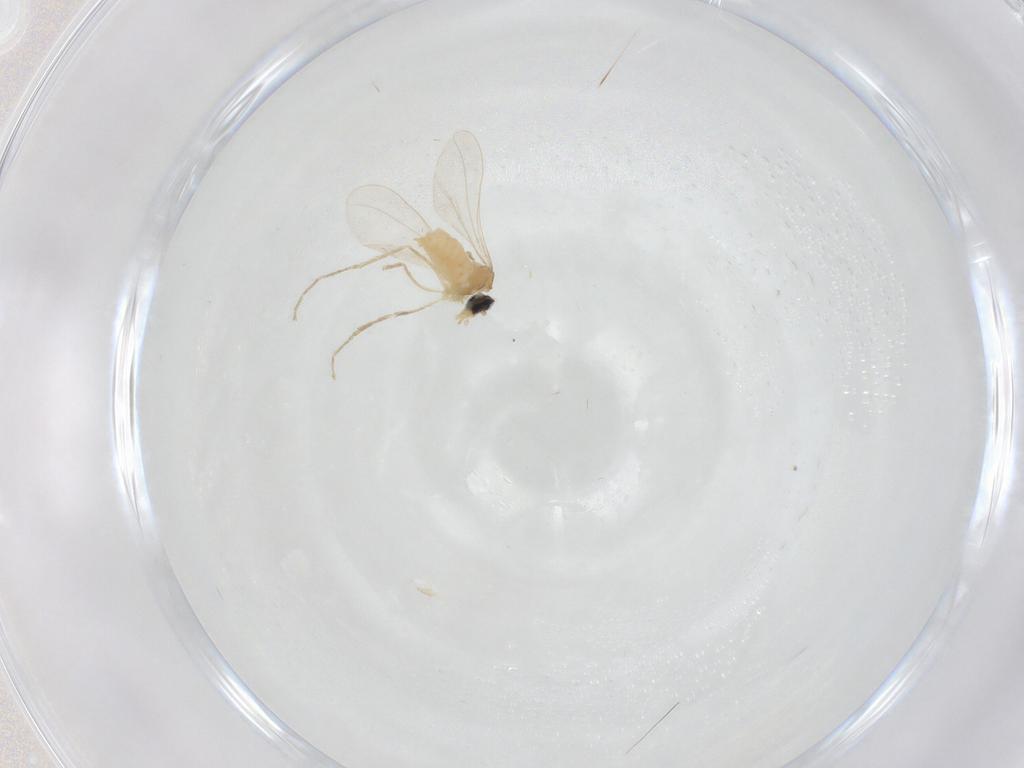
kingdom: Animalia
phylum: Arthropoda
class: Insecta
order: Diptera
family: Cecidomyiidae
